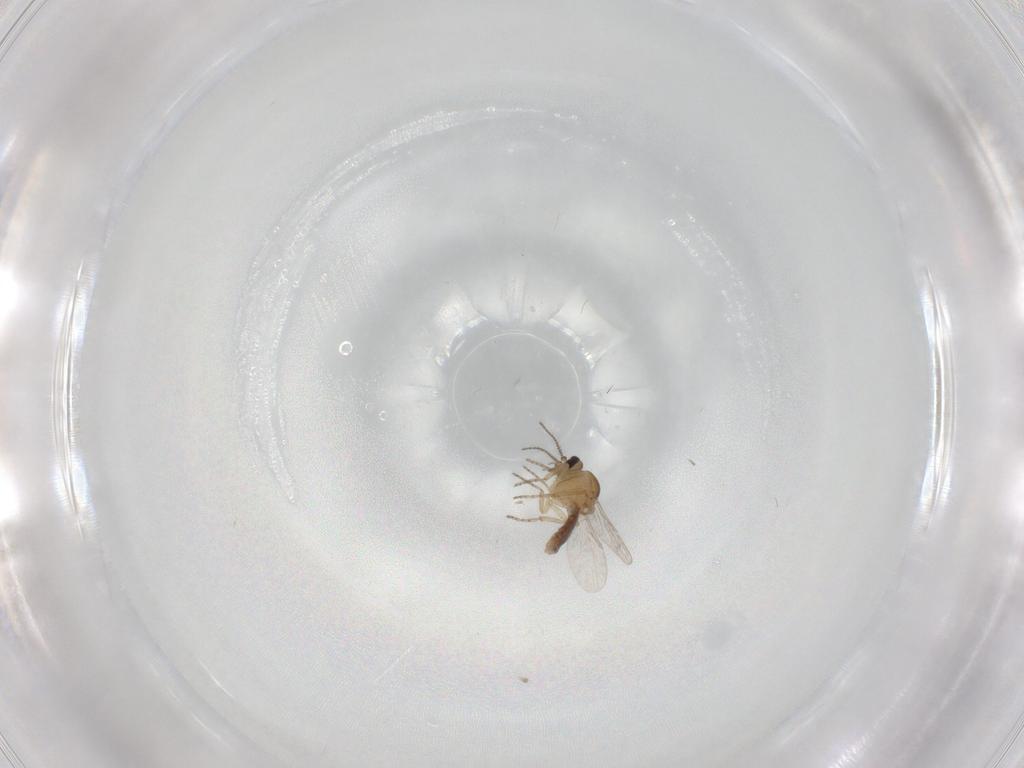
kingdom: Animalia
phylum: Arthropoda
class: Insecta
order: Diptera
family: Ceratopogonidae
